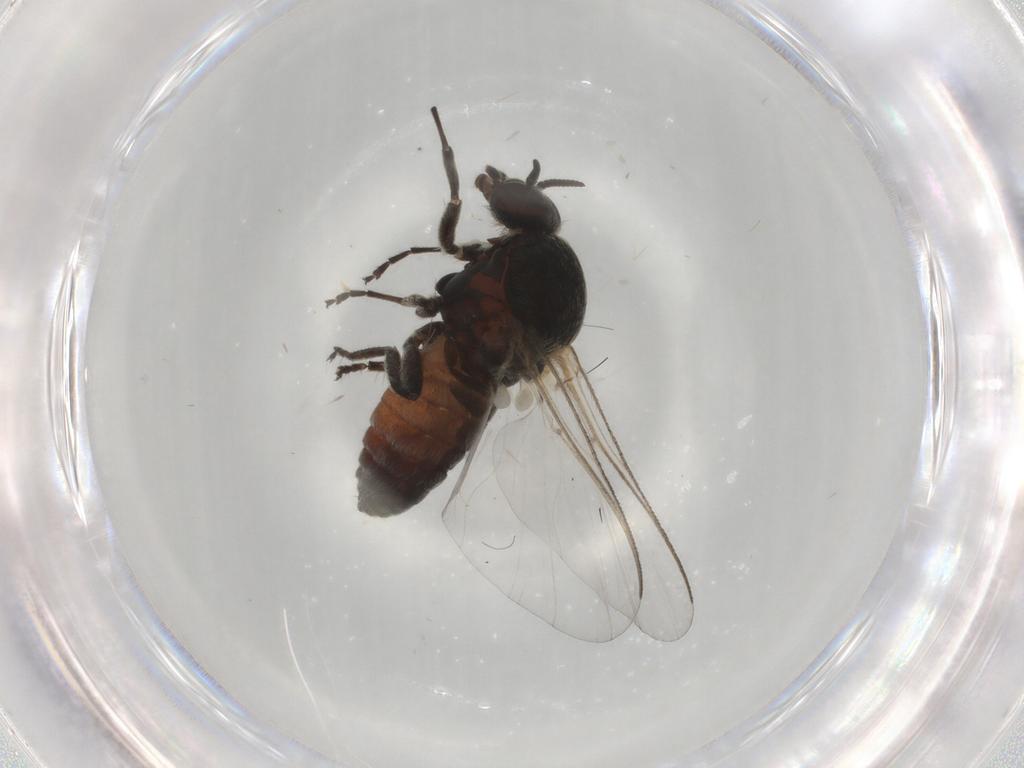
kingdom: Animalia
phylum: Arthropoda
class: Insecta
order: Diptera
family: Phoridae
